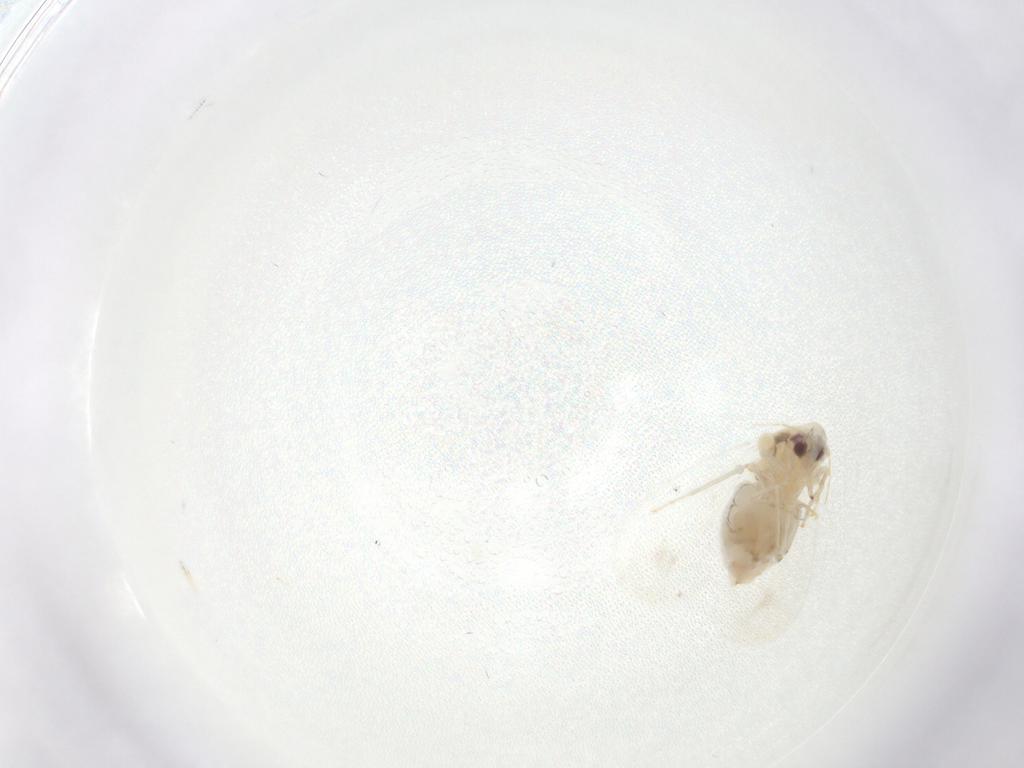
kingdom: Animalia
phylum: Arthropoda
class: Insecta
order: Hemiptera
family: Aleyrodidae
